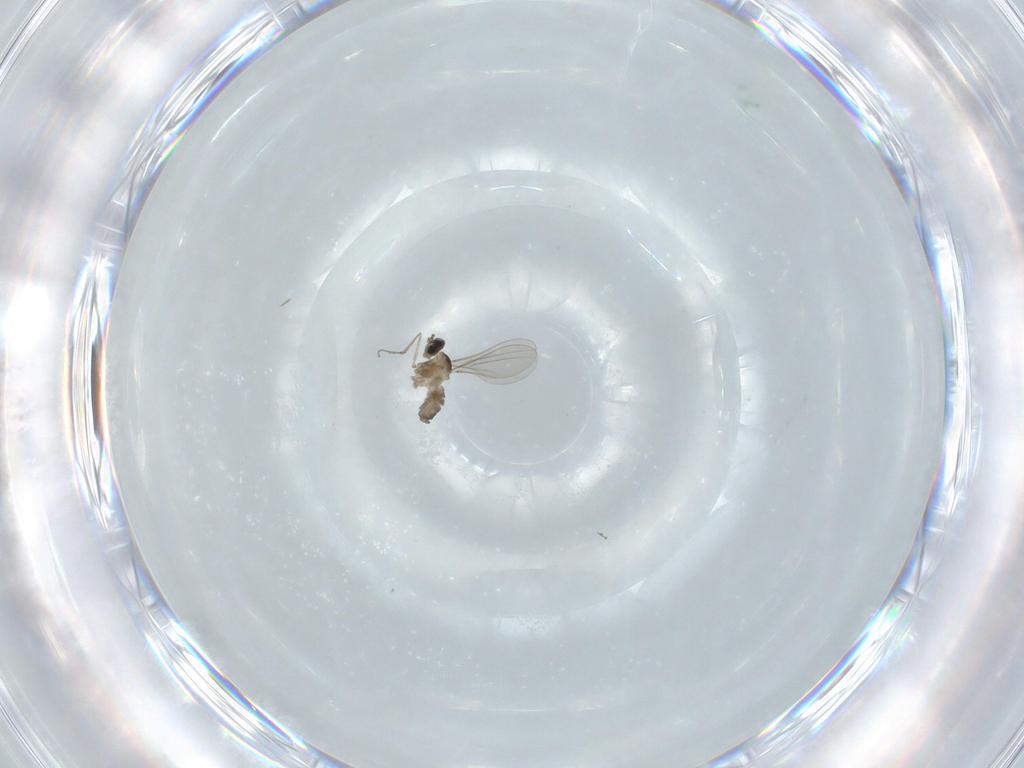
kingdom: Animalia
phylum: Arthropoda
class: Insecta
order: Diptera
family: Cecidomyiidae
